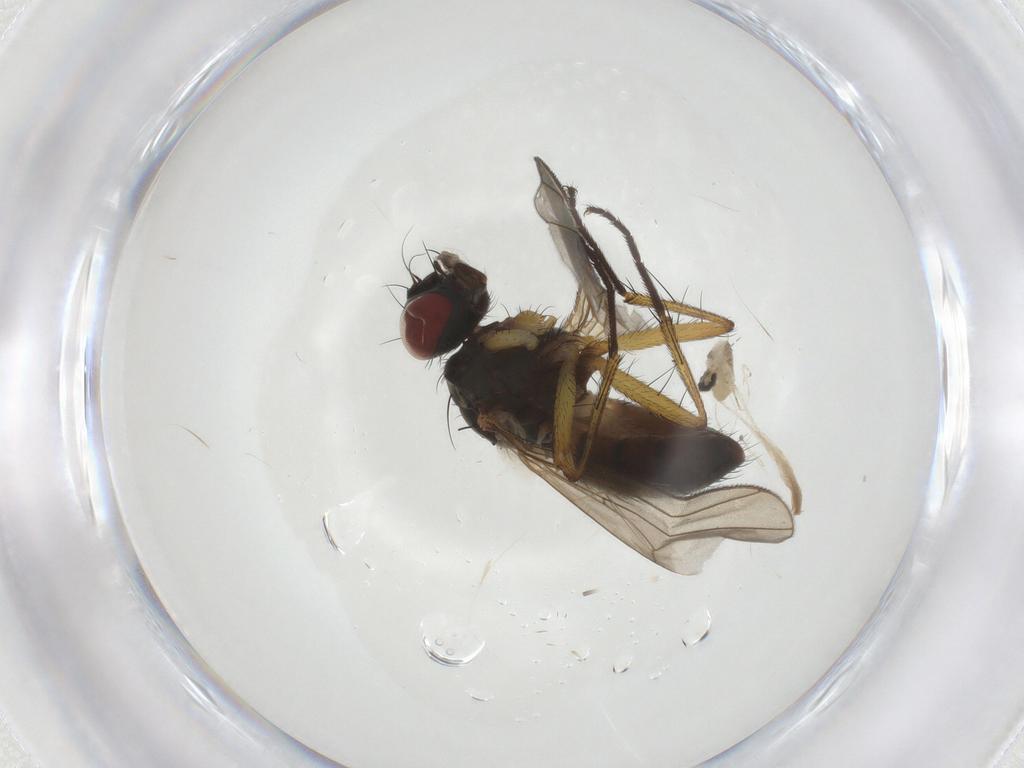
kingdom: Animalia
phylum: Arthropoda
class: Insecta
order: Diptera
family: Muscidae
